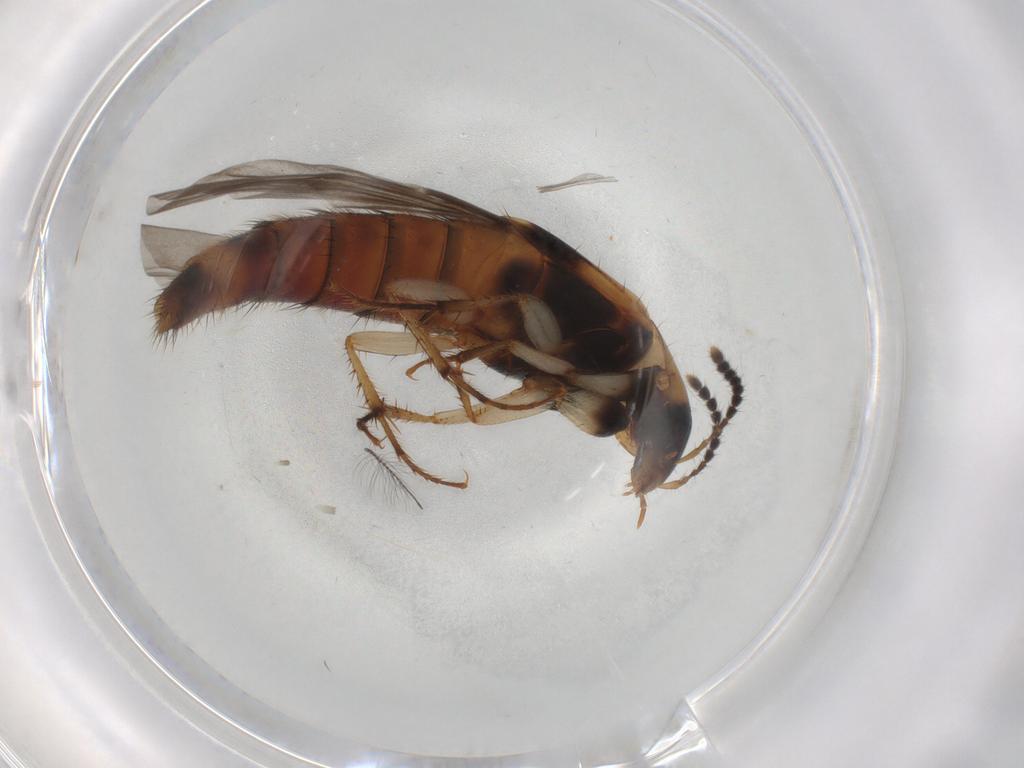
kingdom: Animalia
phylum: Arthropoda
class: Insecta
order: Coleoptera
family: Staphylinidae
